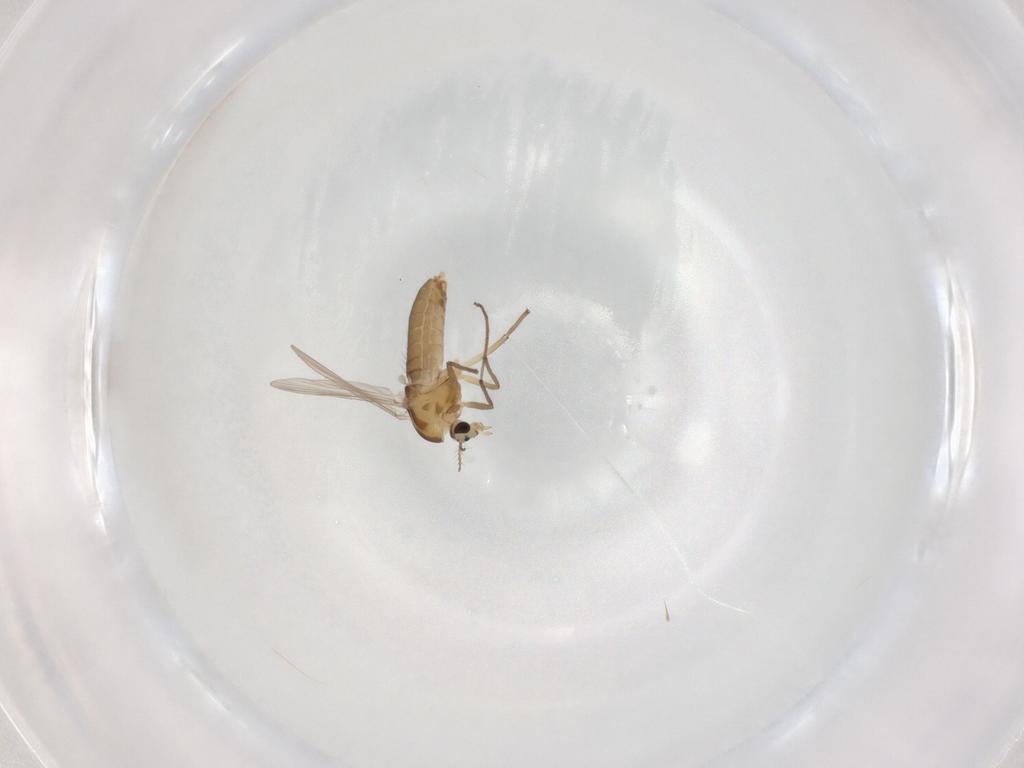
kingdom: Animalia
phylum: Arthropoda
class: Insecta
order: Diptera
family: Chironomidae
